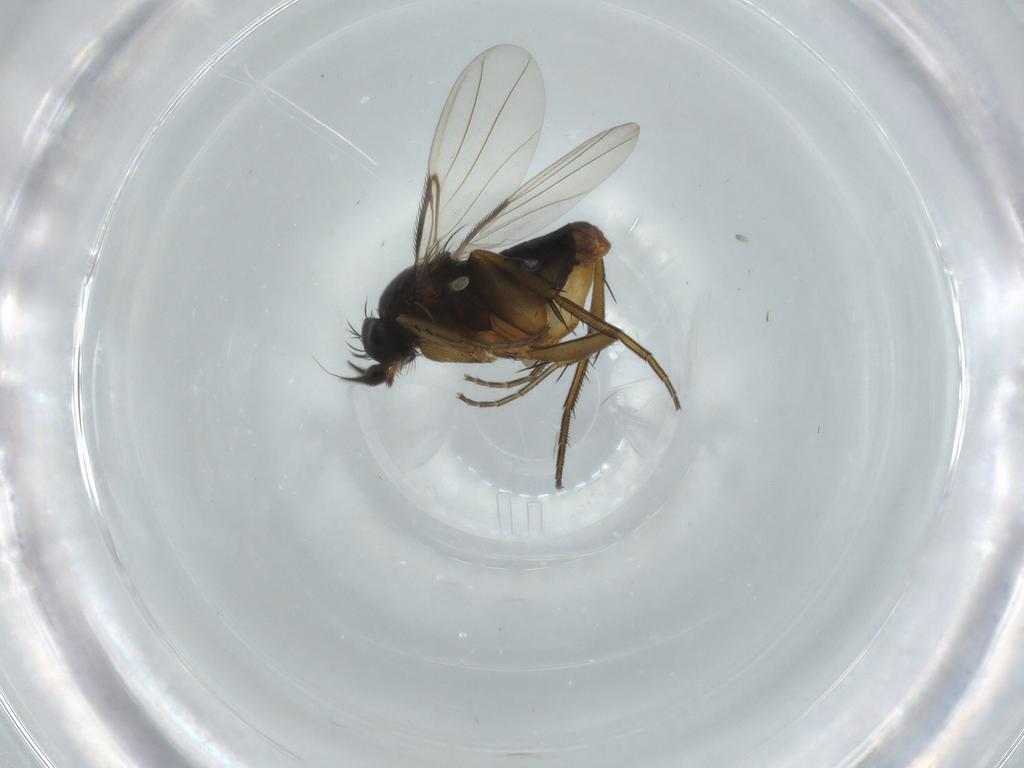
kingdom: Animalia
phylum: Arthropoda
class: Insecta
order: Diptera
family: Phoridae
